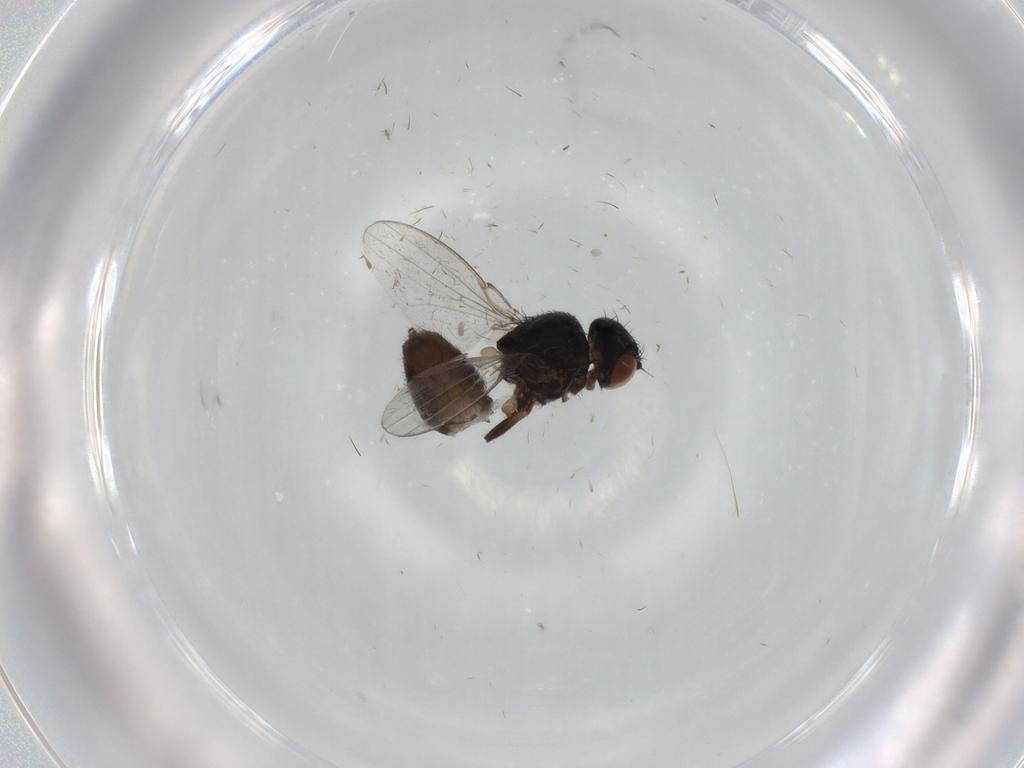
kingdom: Animalia
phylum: Arthropoda
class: Insecta
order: Diptera
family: Milichiidae
